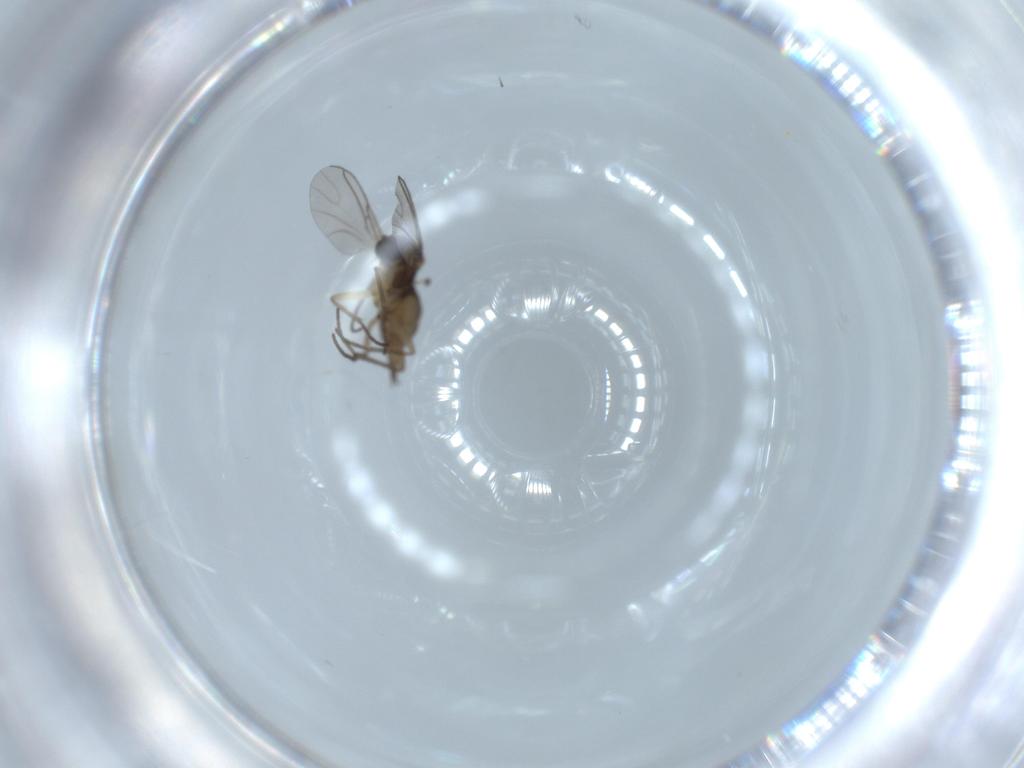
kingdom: Animalia
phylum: Arthropoda
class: Insecta
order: Diptera
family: Sciaridae
